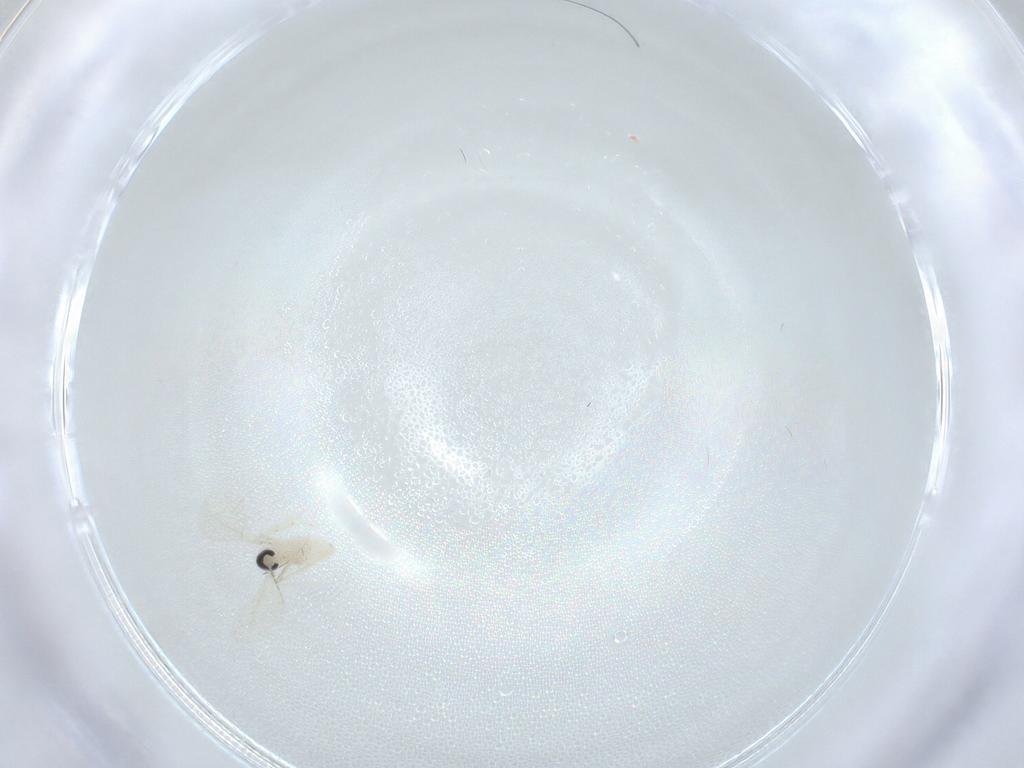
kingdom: Animalia
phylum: Arthropoda
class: Insecta
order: Diptera
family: Cecidomyiidae
